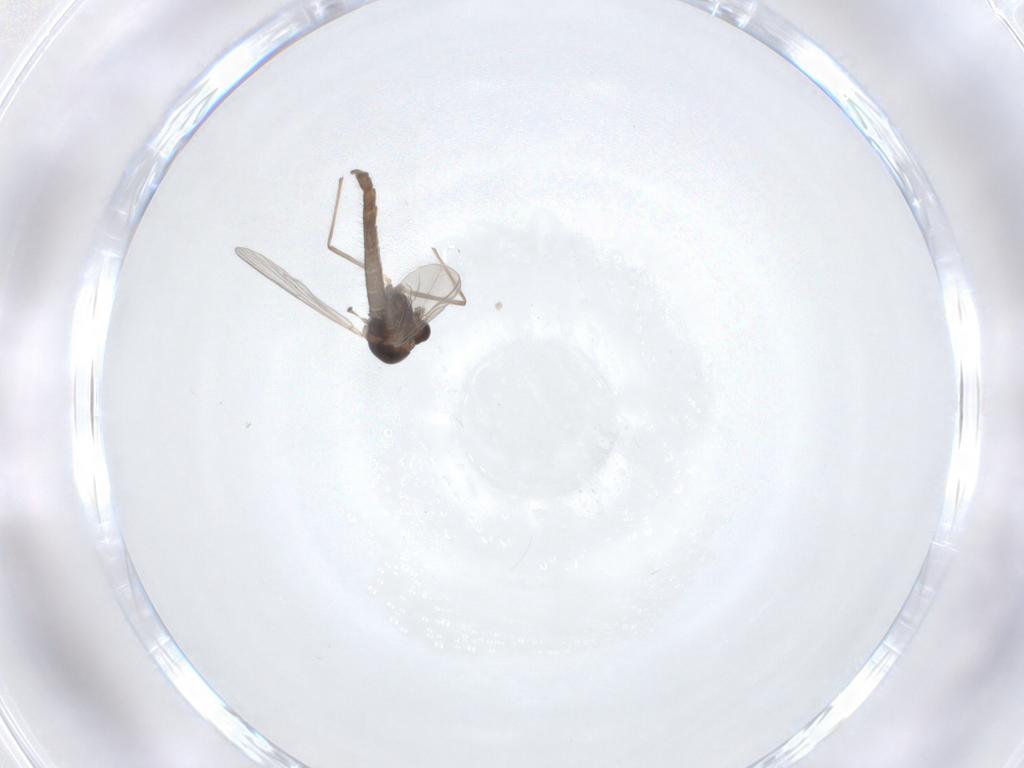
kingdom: Animalia
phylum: Arthropoda
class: Insecta
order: Diptera
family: Chironomidae
